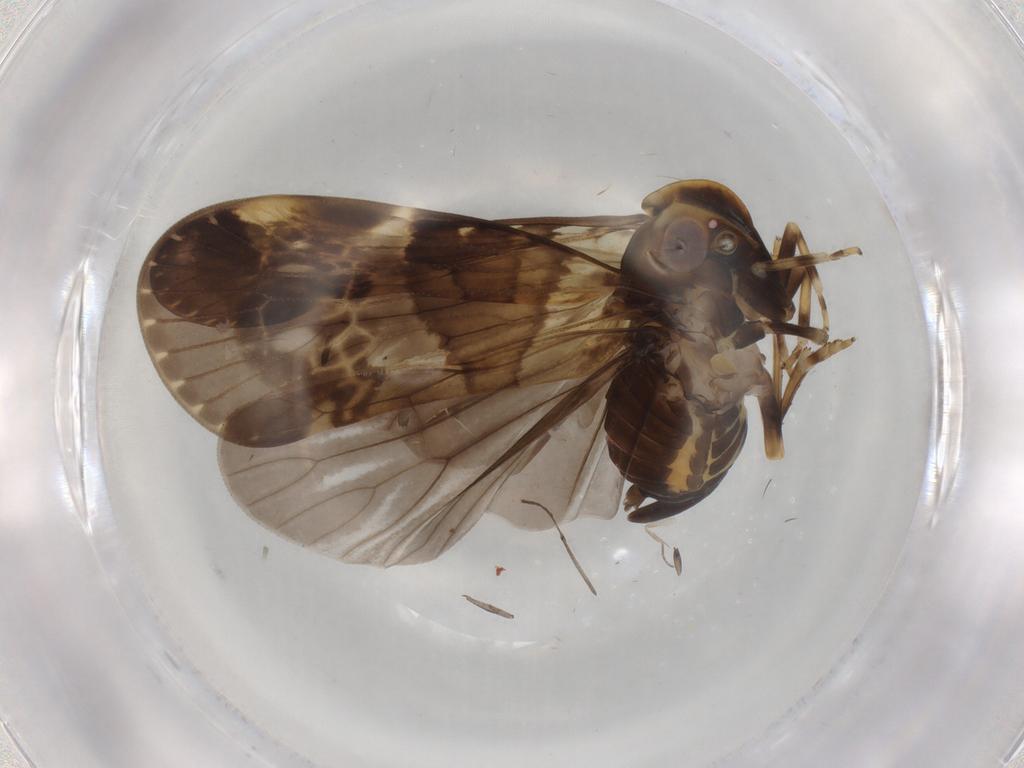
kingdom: Animalia
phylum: Arthropoda
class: Insecta
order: Hemiptera
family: Cixiidae
